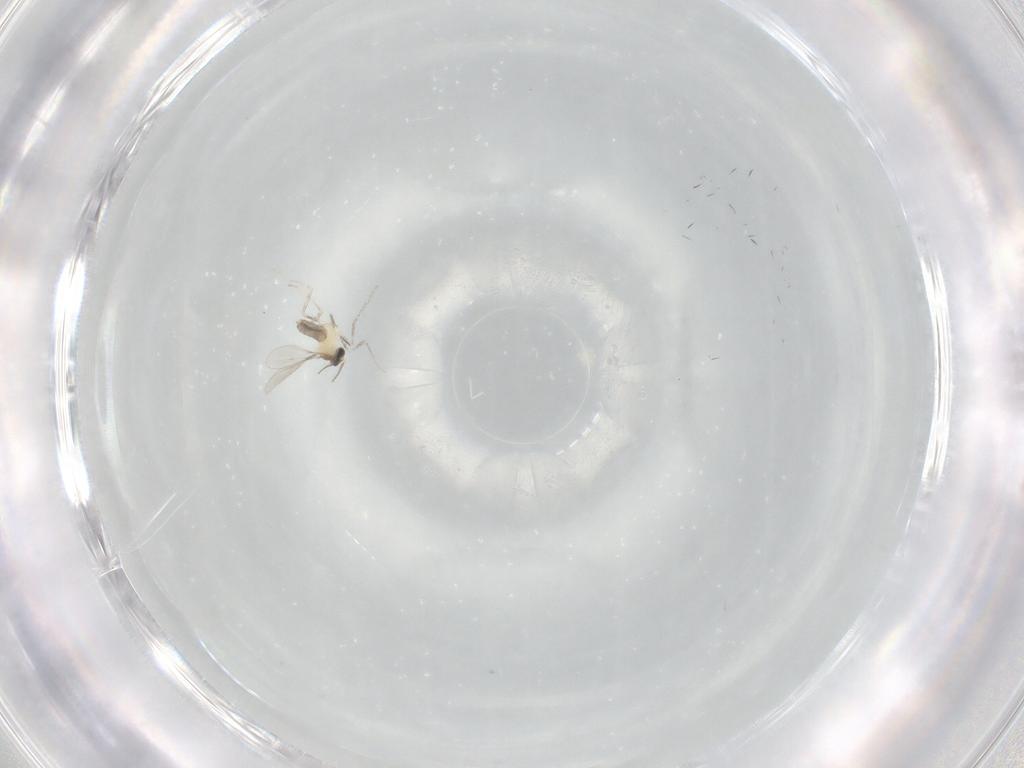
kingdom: Animalia
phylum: Arthropoda
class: Insecta
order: Diptera
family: Cecidomyiidae
